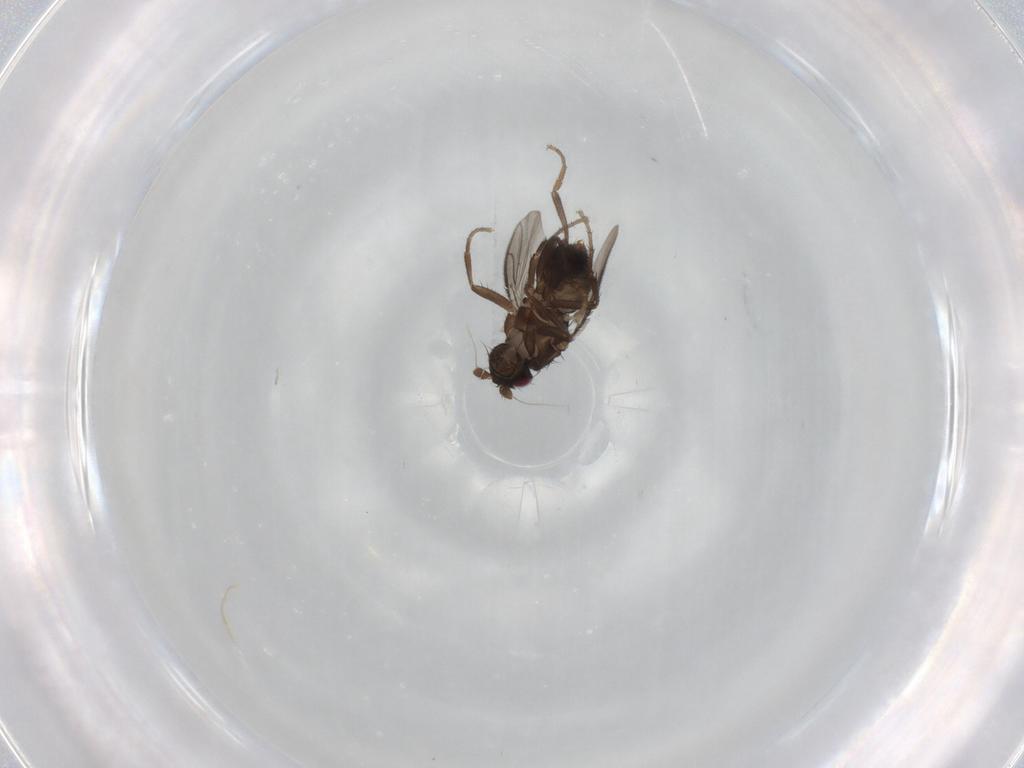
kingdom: Animalia
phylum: Arthropoda
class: Insecta
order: Diptera
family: Sphaeroceridae
